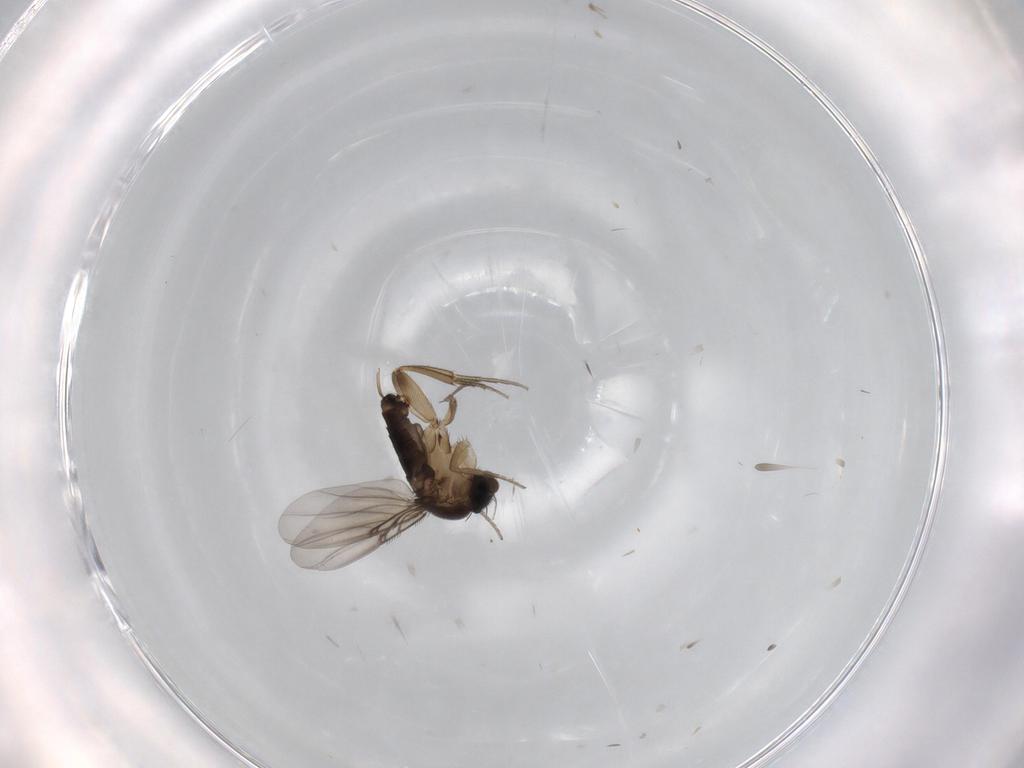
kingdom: Animalia
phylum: Arthropoda
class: Insecta
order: Diptera
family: Phoridae
